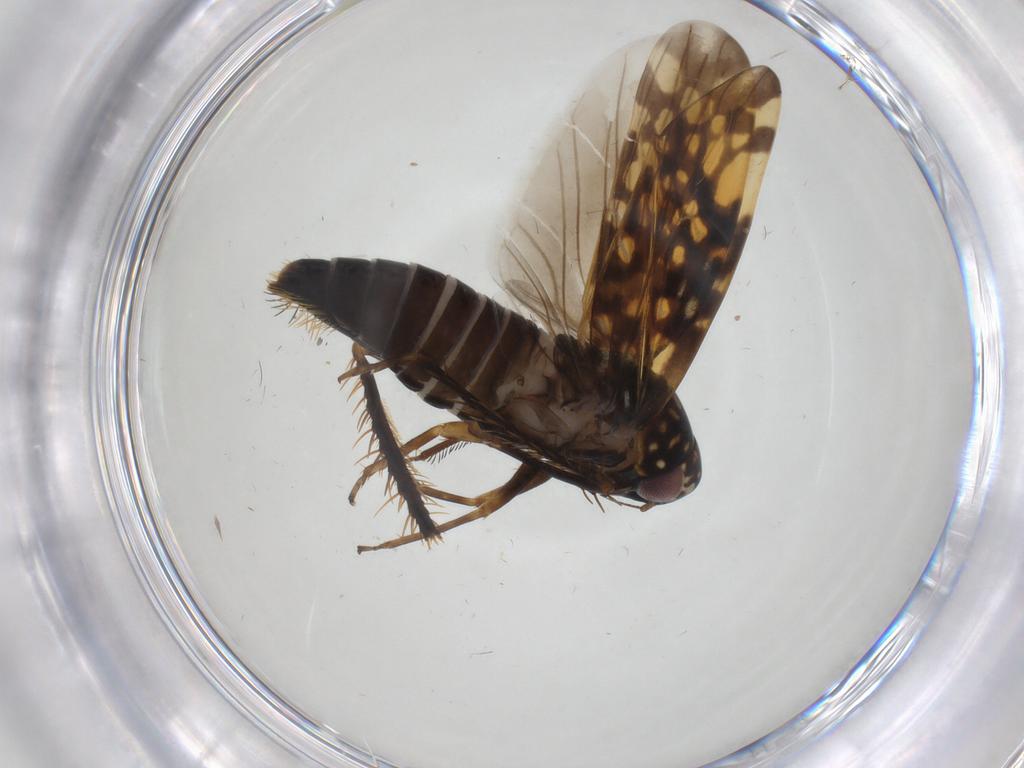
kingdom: Animalia
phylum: Arthropoda
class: Insecta
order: Hemiptera
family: Cicadellidae
